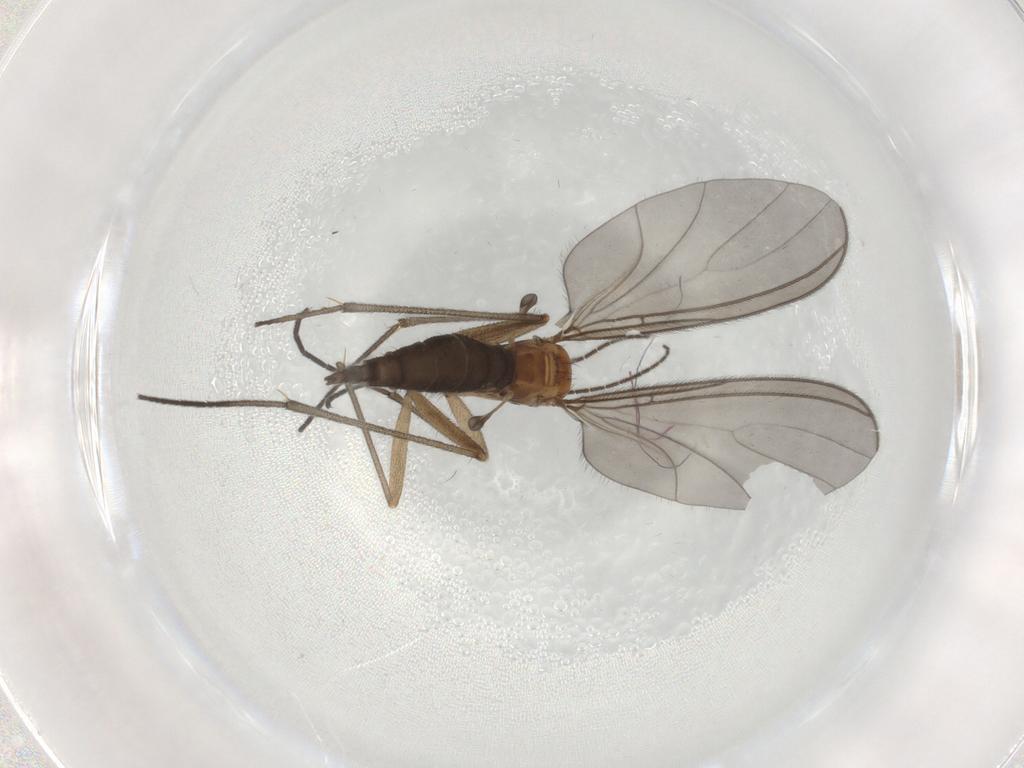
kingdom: Animalia
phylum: Arthropoda
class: Insecta
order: Diptera
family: Sciaridae
